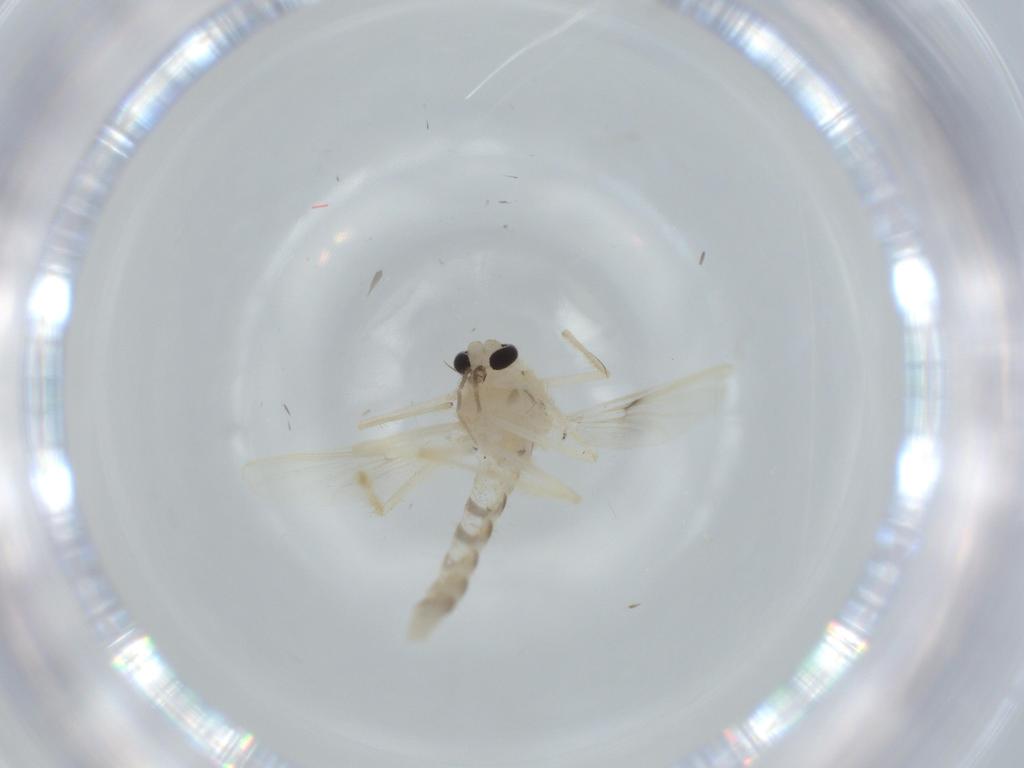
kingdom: Animalia
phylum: Arthropoda
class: Insecta
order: Diptera
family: Chironomidae
